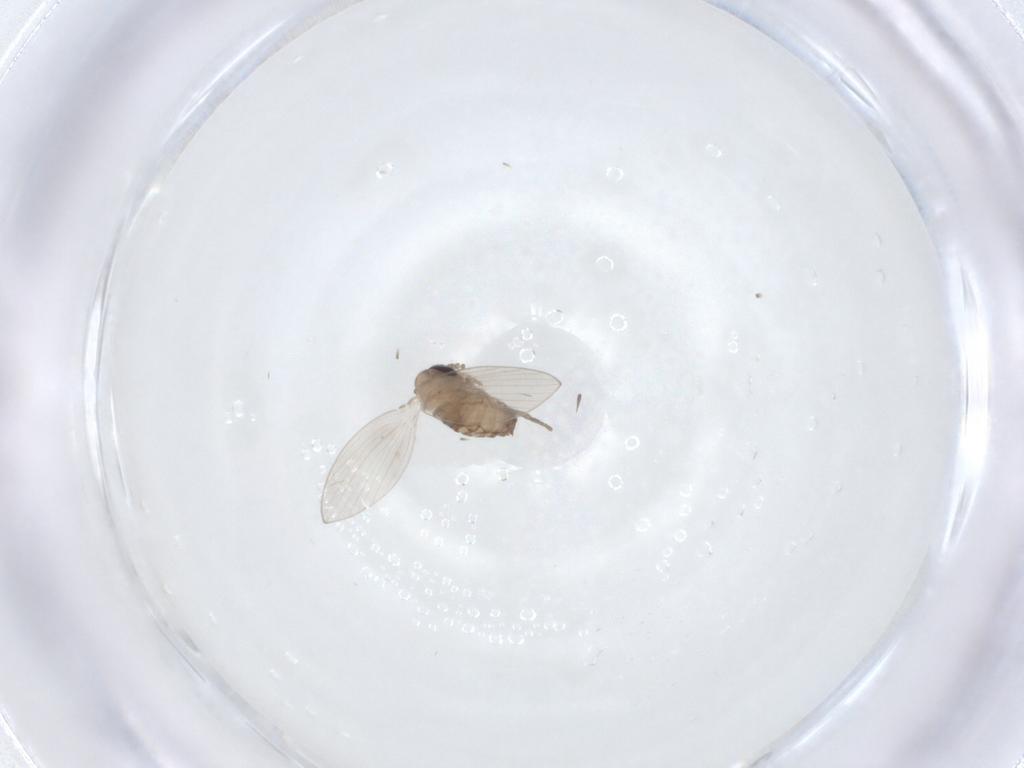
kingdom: Animalia
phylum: Arthropoda
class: Insecta
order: Diptera
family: Psychodidae
